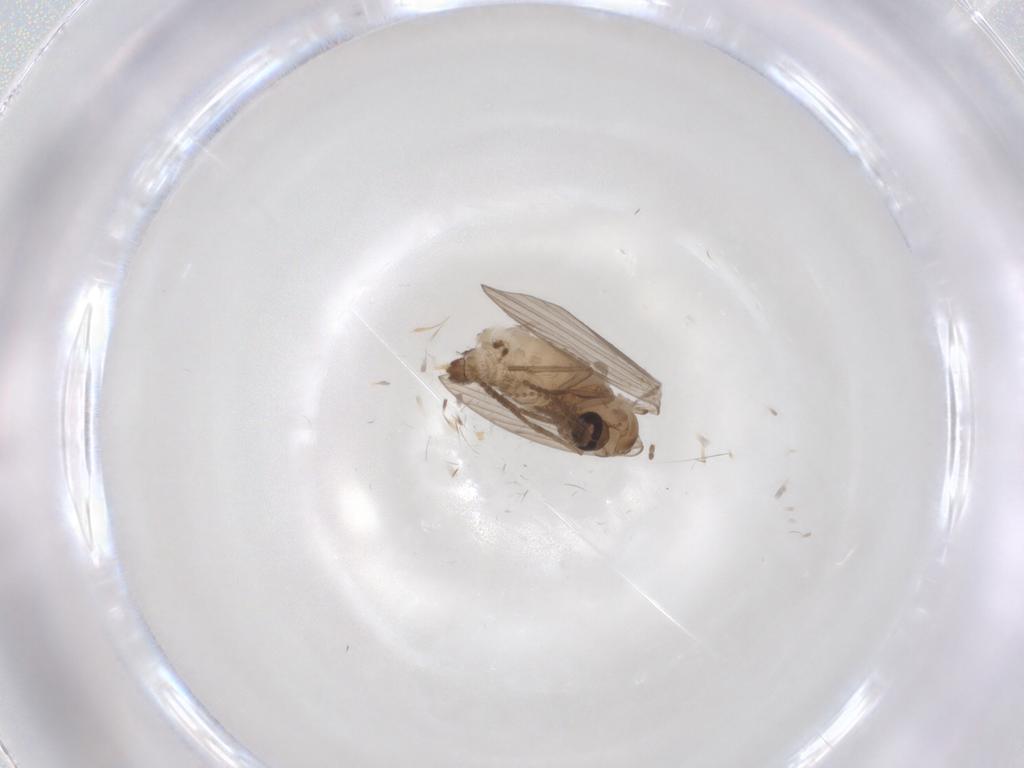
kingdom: Animalia
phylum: Arthropoda
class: Insecta
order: Diptera
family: Psychodidae
